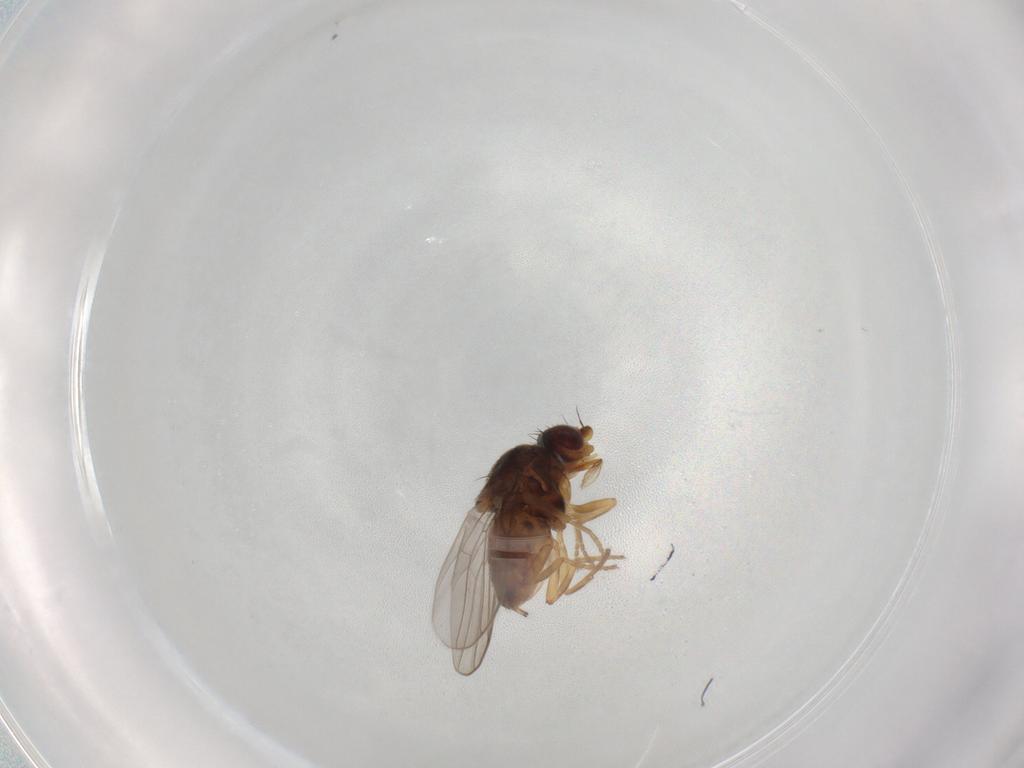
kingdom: Animalia
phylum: Arthropoda
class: Insecta
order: Diptera
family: Chloropidae
